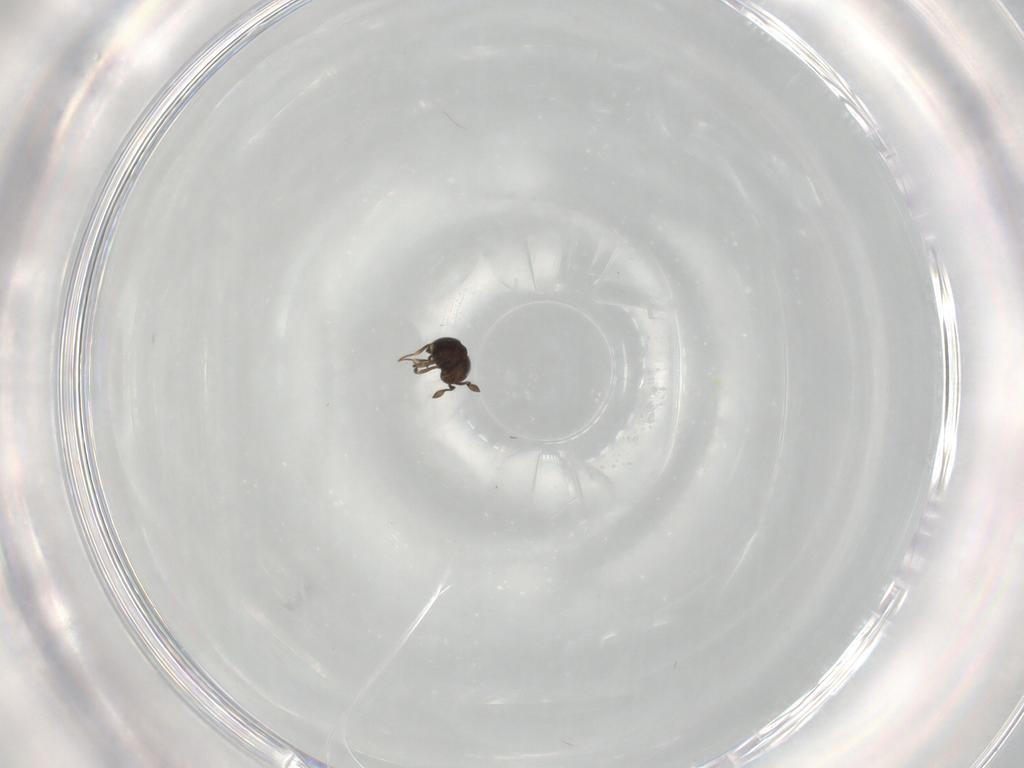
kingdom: Animalia
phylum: Arthropoda
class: Insecta
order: Hymenoptera
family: Scelionidae
